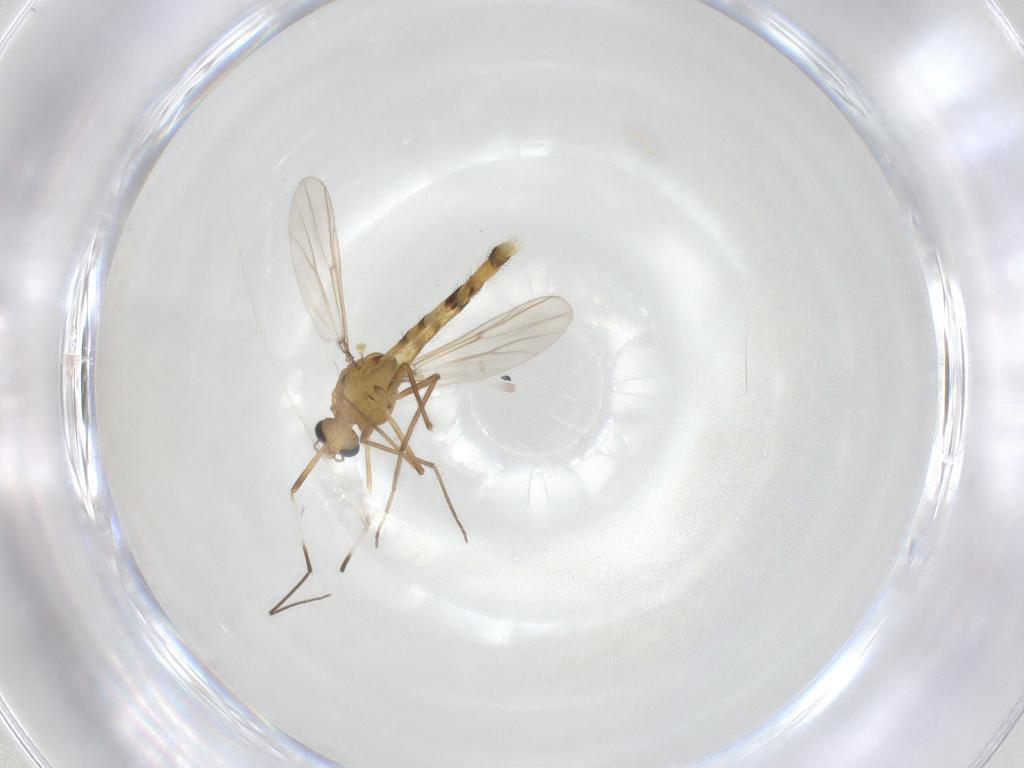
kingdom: Animalia
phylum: Arthropoda
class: Insecta
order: Diptera
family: Chironomidae
